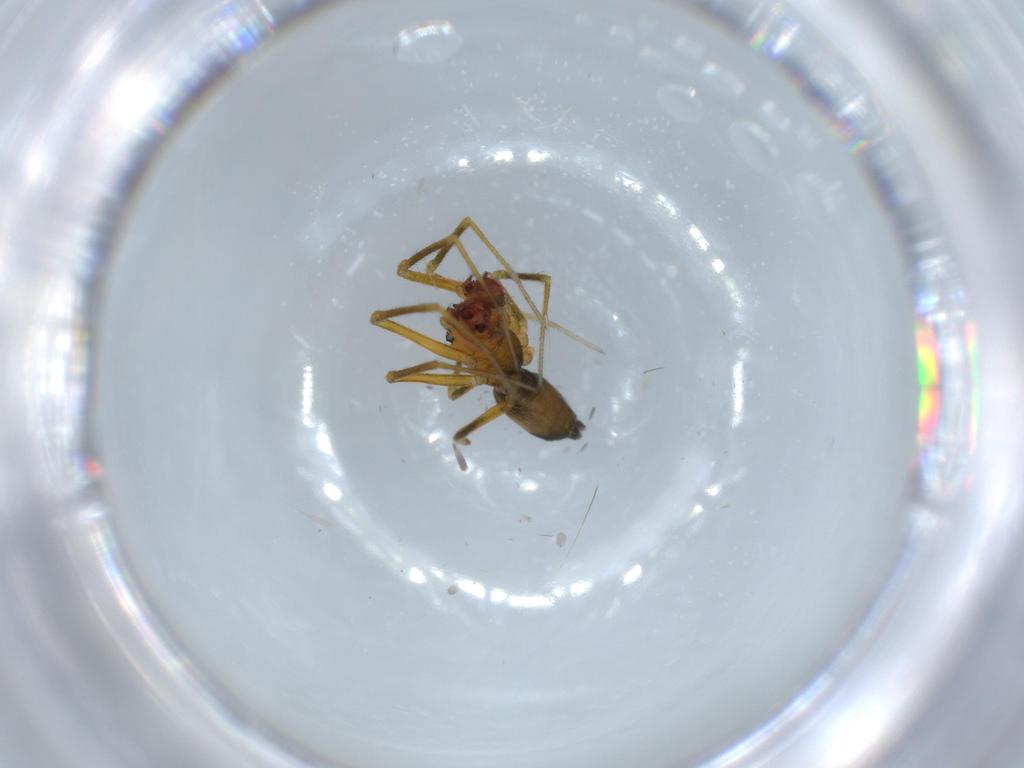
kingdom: Animalia
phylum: Arthropoda
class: Arachnida
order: Araneae
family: Linyphiidae
